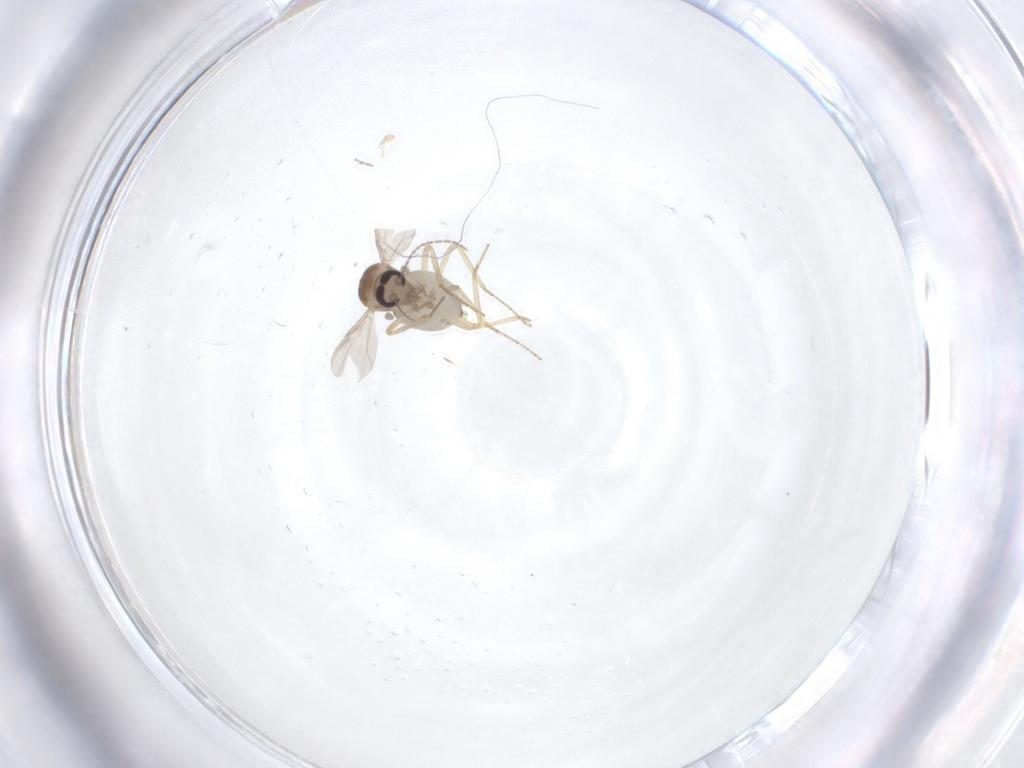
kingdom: Animalia
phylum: Arthropoda
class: Insecta
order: Diptera
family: Ceratopogonidae
